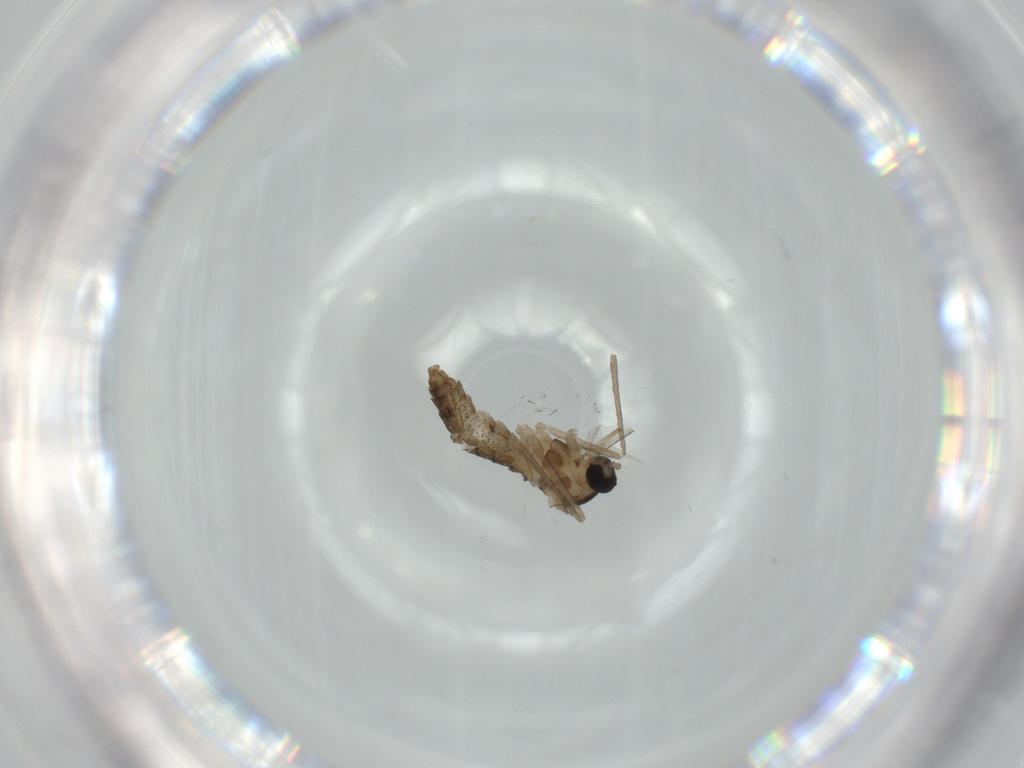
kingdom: Animalia
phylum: Arthropoda
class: Insecta
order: Diptera
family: Cecidomyiidae
